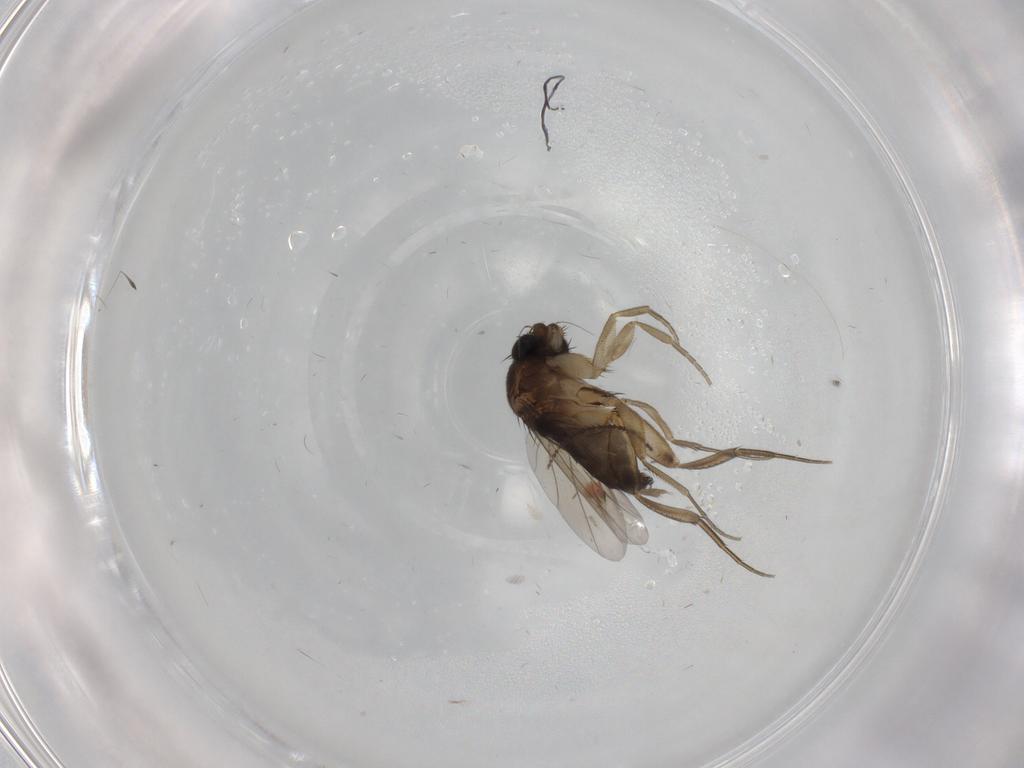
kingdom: Animalia
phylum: Arthropoda
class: Insecta
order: Diptera
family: Phoridae
